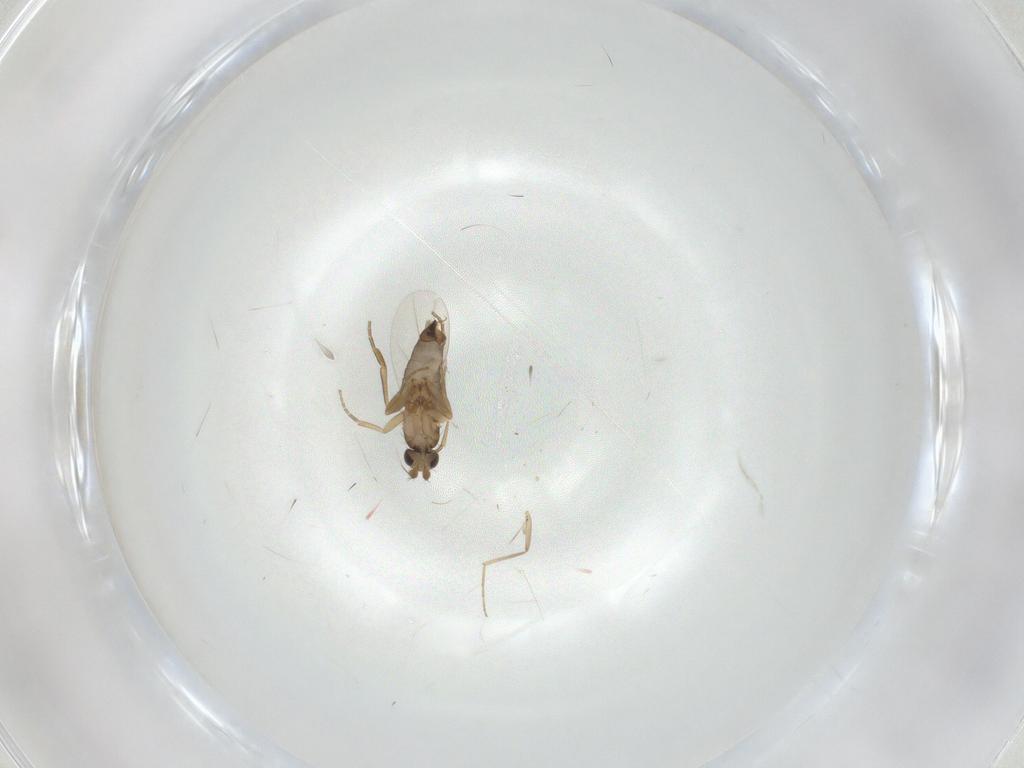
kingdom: Animalia
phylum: Arthropoda
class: Insecta
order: Diptera
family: Phoridae
